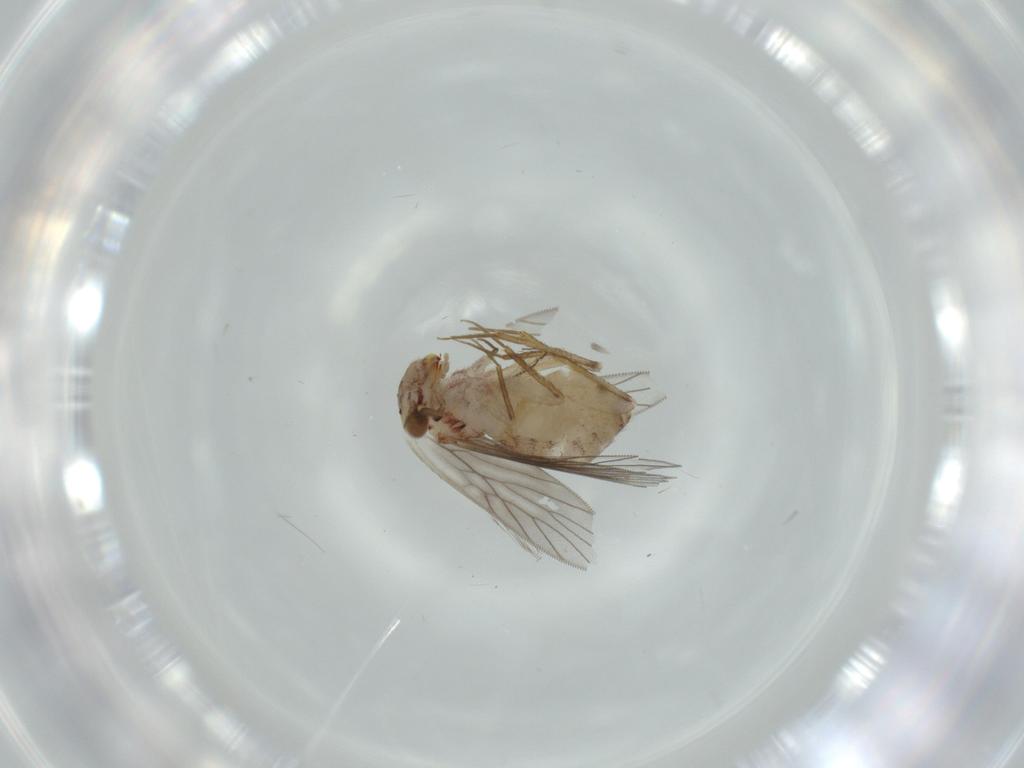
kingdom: Animalia
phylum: Arthropoda
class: Insecta
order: Psocodea
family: Lepidopsocidae
